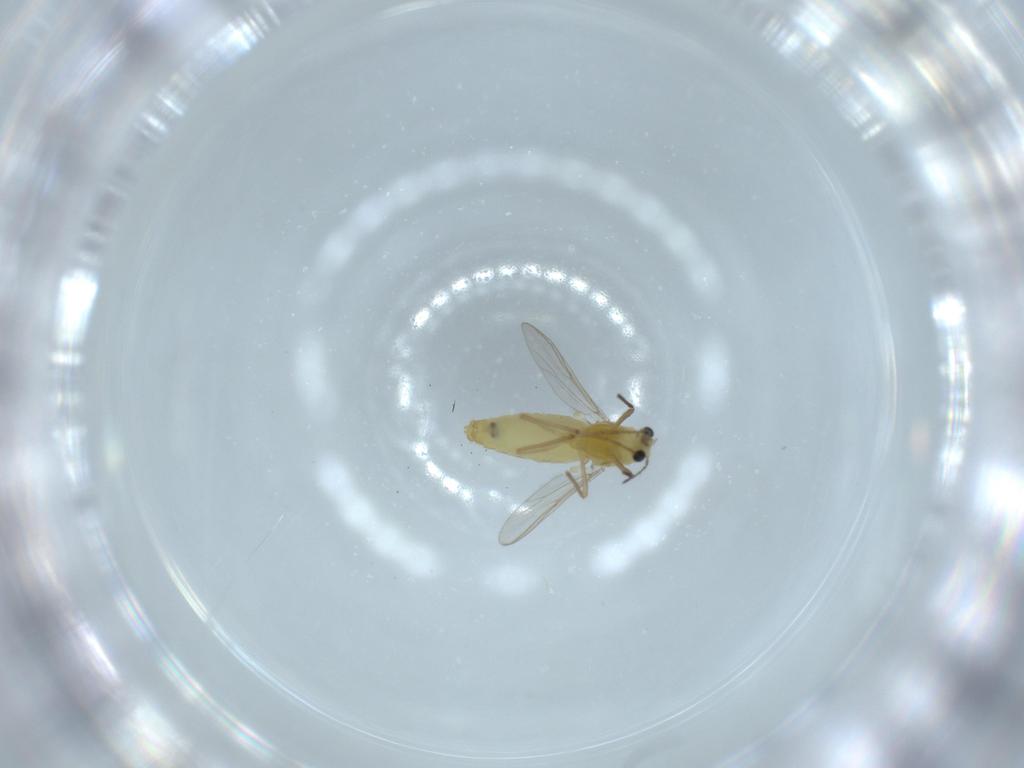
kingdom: Animalia
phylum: Arthropoda
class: Insecta
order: Diptera
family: Chironomidae
